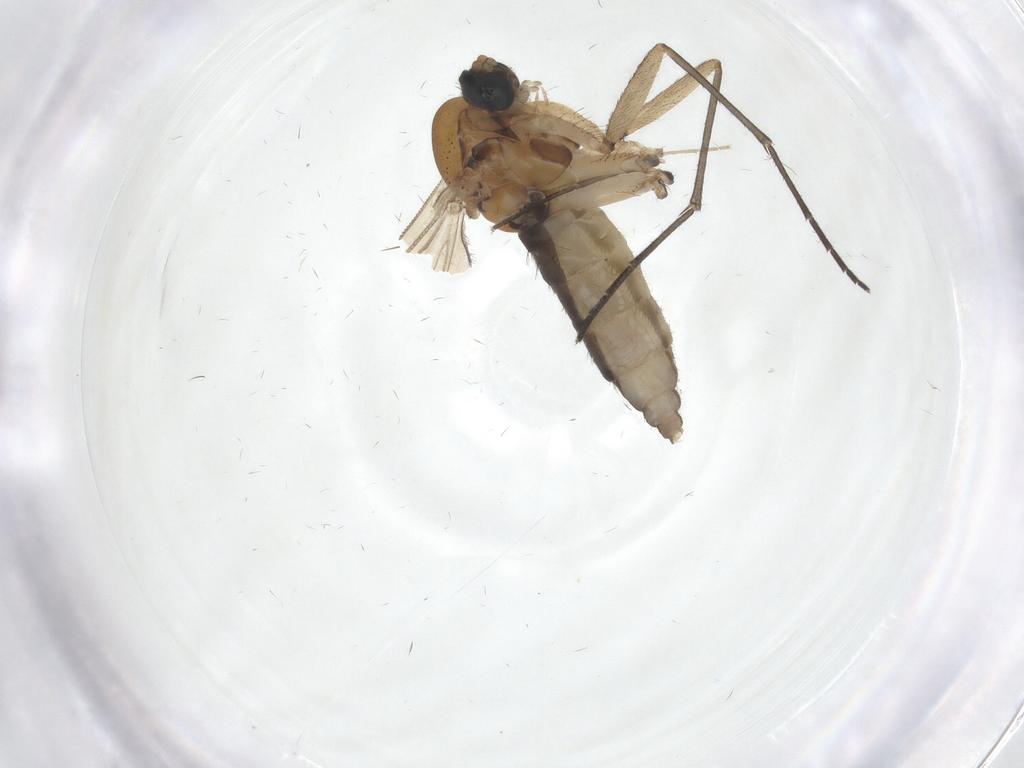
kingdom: Animalia
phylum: Arthropoda
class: Insecta
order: Diptera
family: Sciaridae
